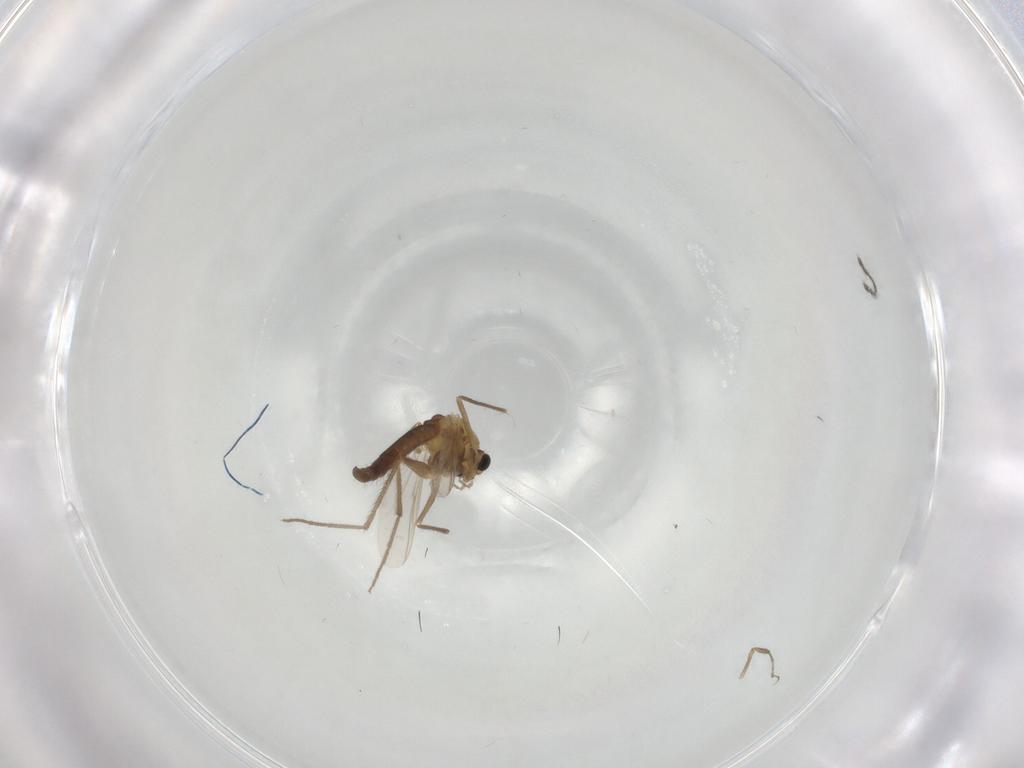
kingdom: Animalia
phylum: Arthropoda
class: Insecta
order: Diptera
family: Chironomidae
